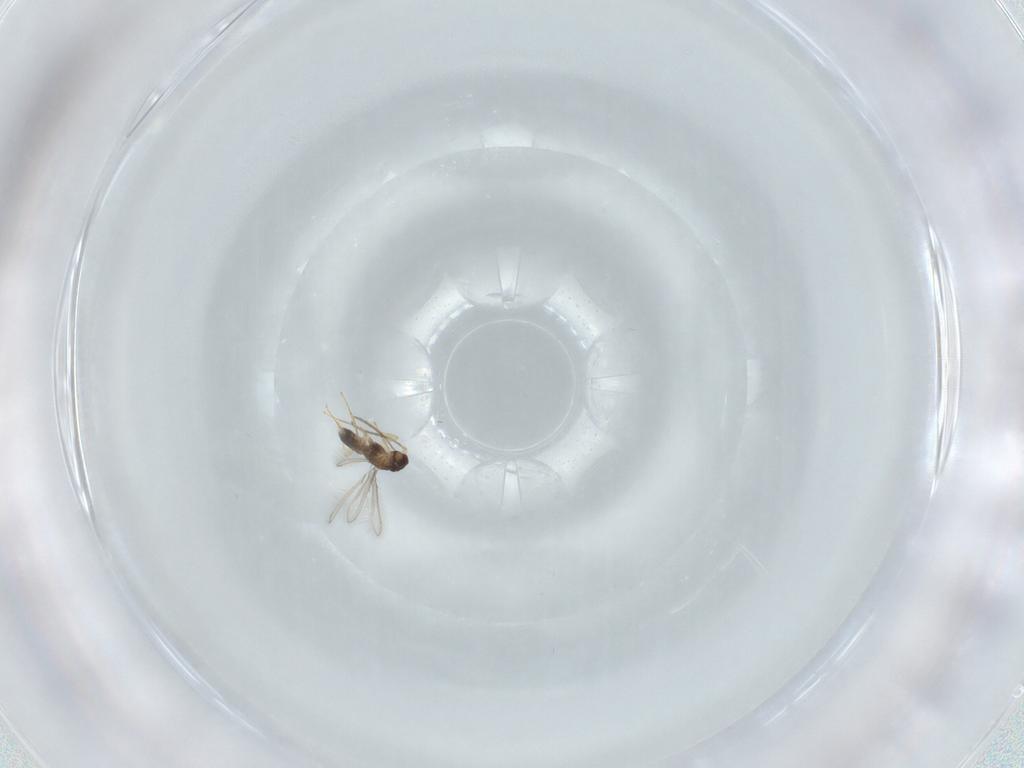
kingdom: Animalia
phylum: Arthropoda
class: Insecta
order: Hymenoptera
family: Mymaridae
